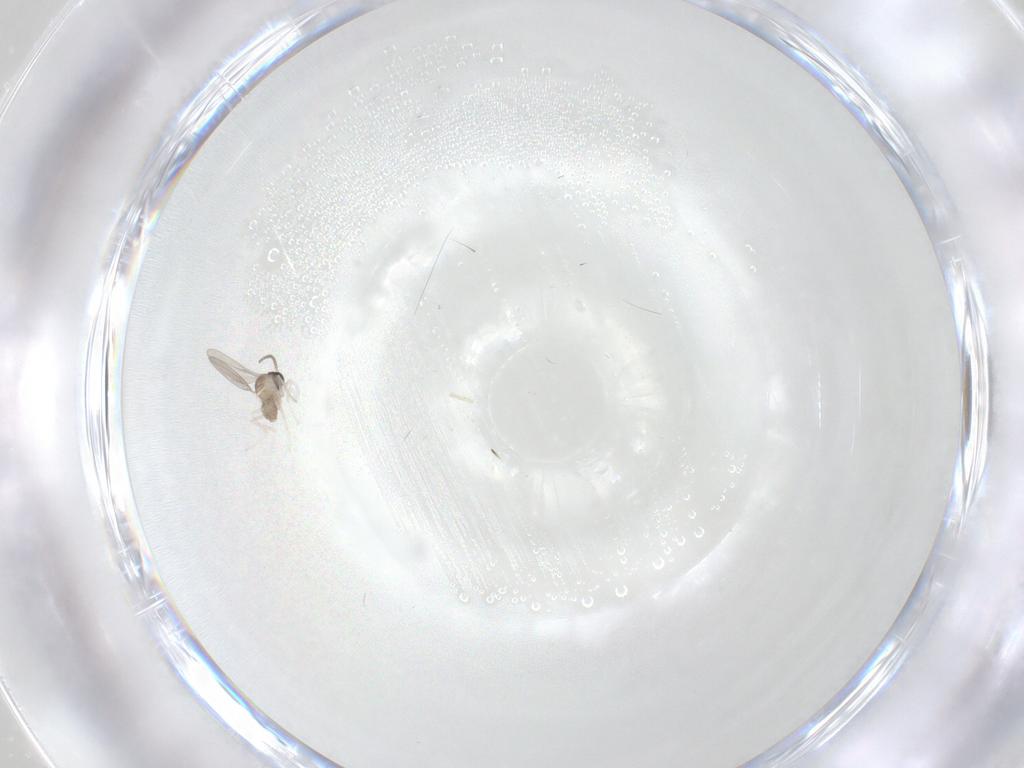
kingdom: Animalia
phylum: Arthropoda
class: Insecta
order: Diptera
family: Cecidomyiidae
